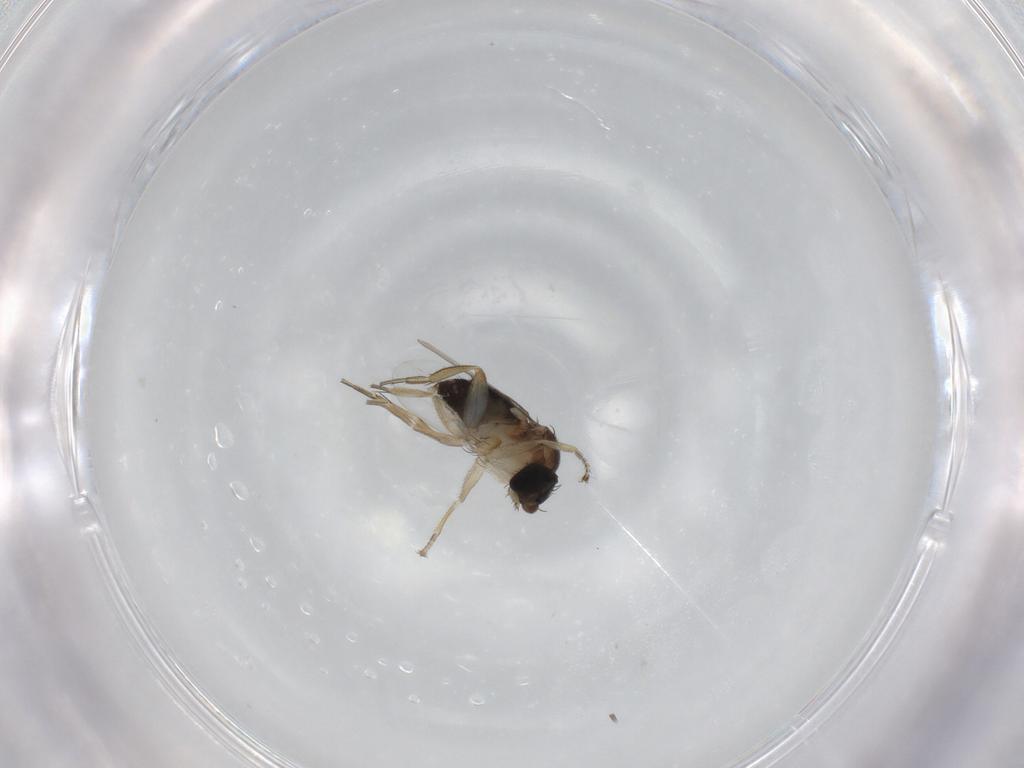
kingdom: Animalia
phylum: Arthropoda
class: Insecta
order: Diptera
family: Phoridae
